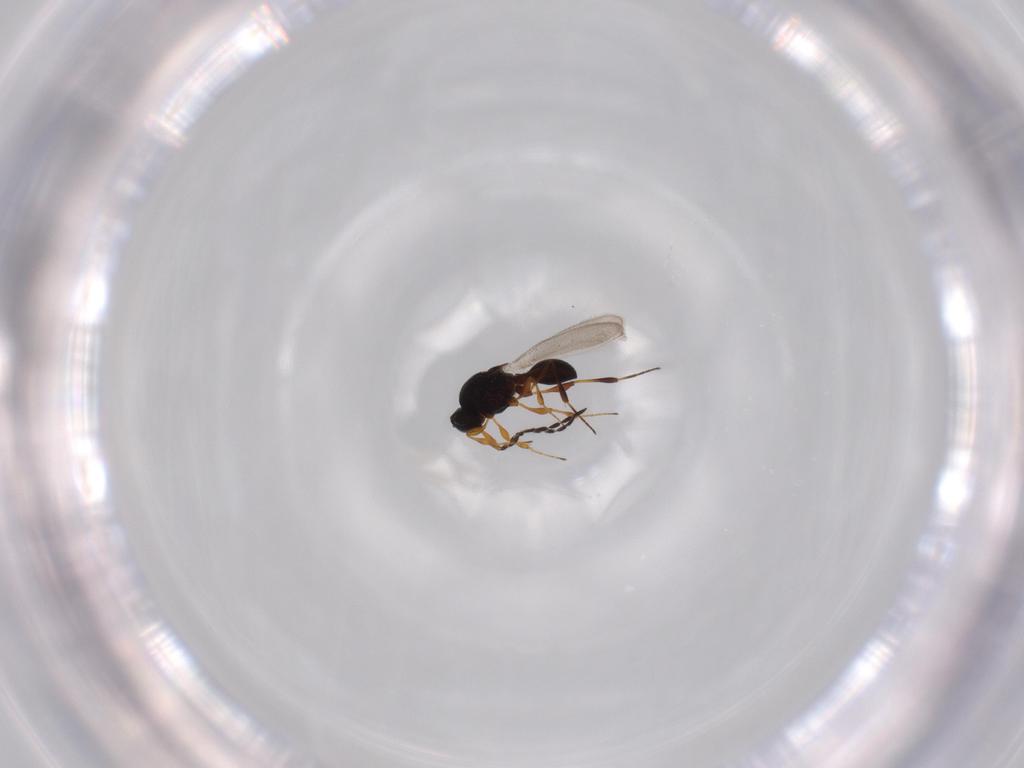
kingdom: Animalia
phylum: Arthropoda
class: Insecta
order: Hymenoptera
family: Platygastridae
